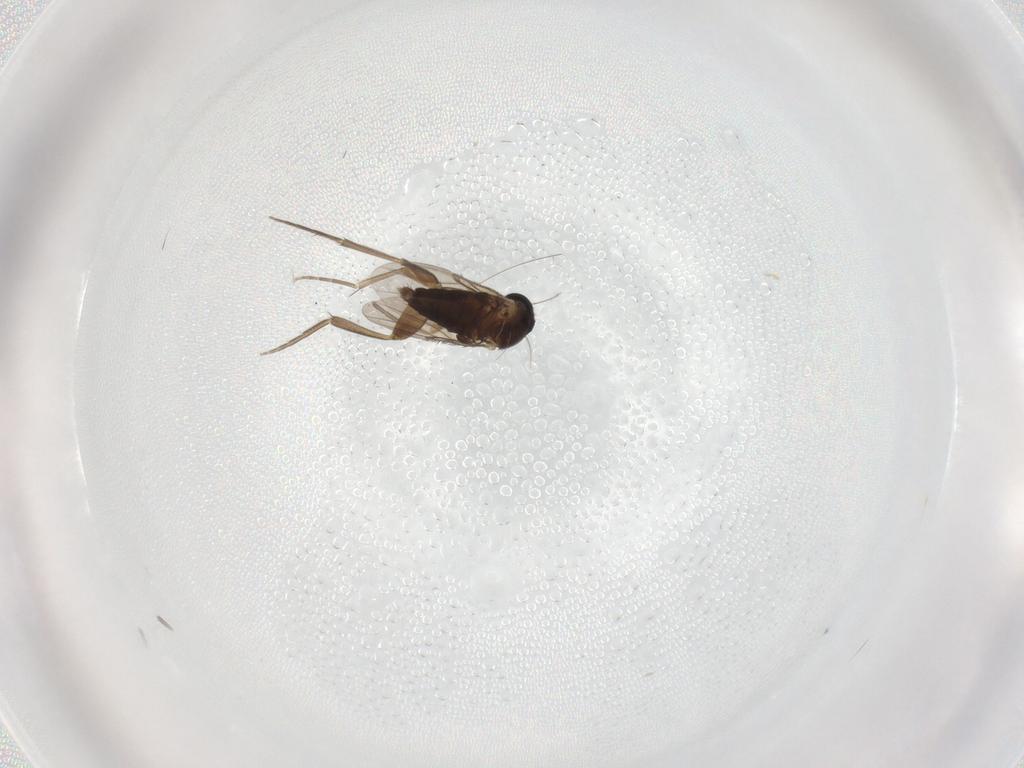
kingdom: Animalia
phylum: Arthropoda
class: Insecta
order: Diptera
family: Phoridae
